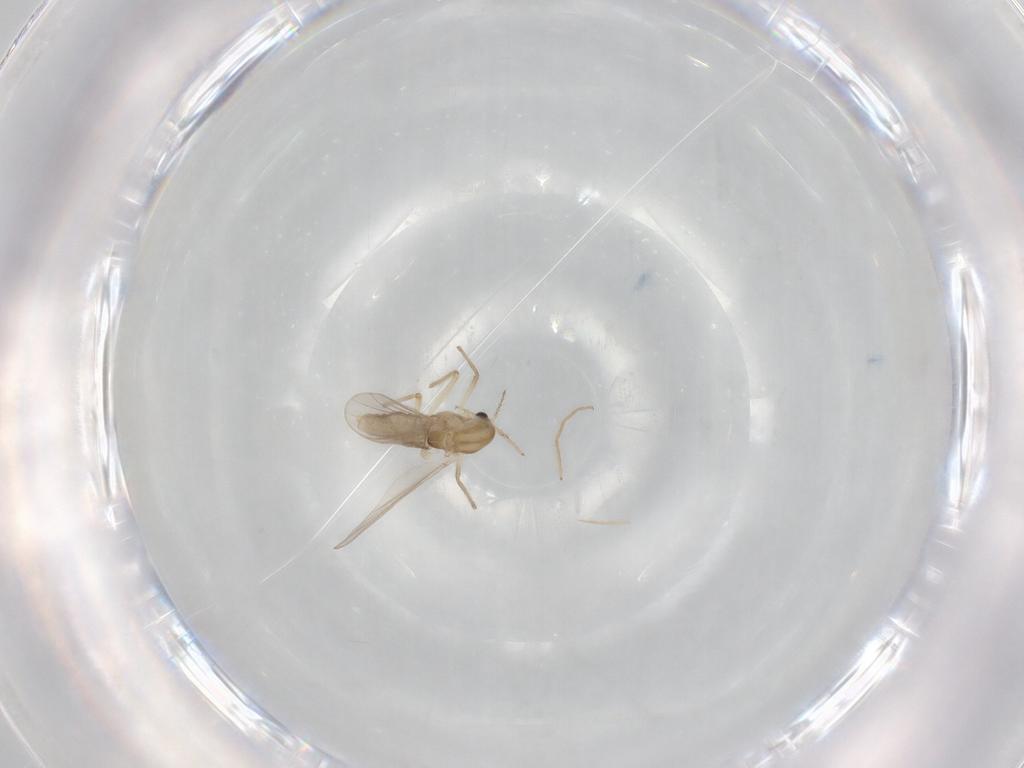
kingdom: Animalia
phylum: Arthropoda
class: Insecta
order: Diptera
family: Chironomidae
